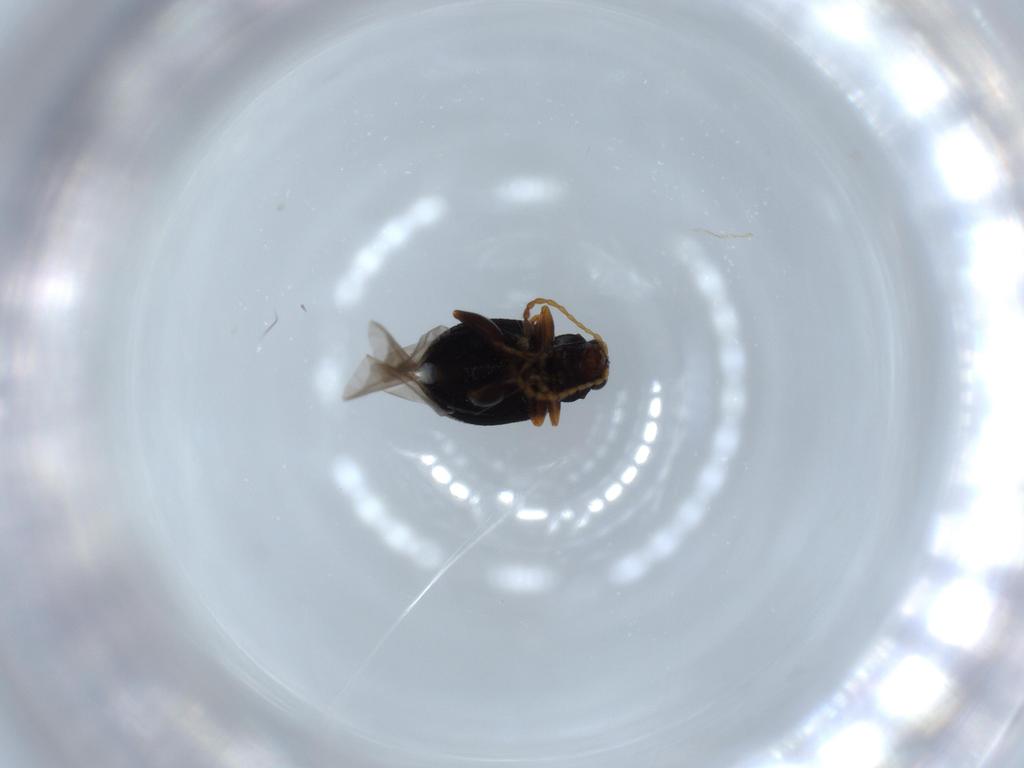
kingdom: Animalia
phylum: Arthropoda
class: Insecta
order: Coleoptera
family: Chrysomelidae
